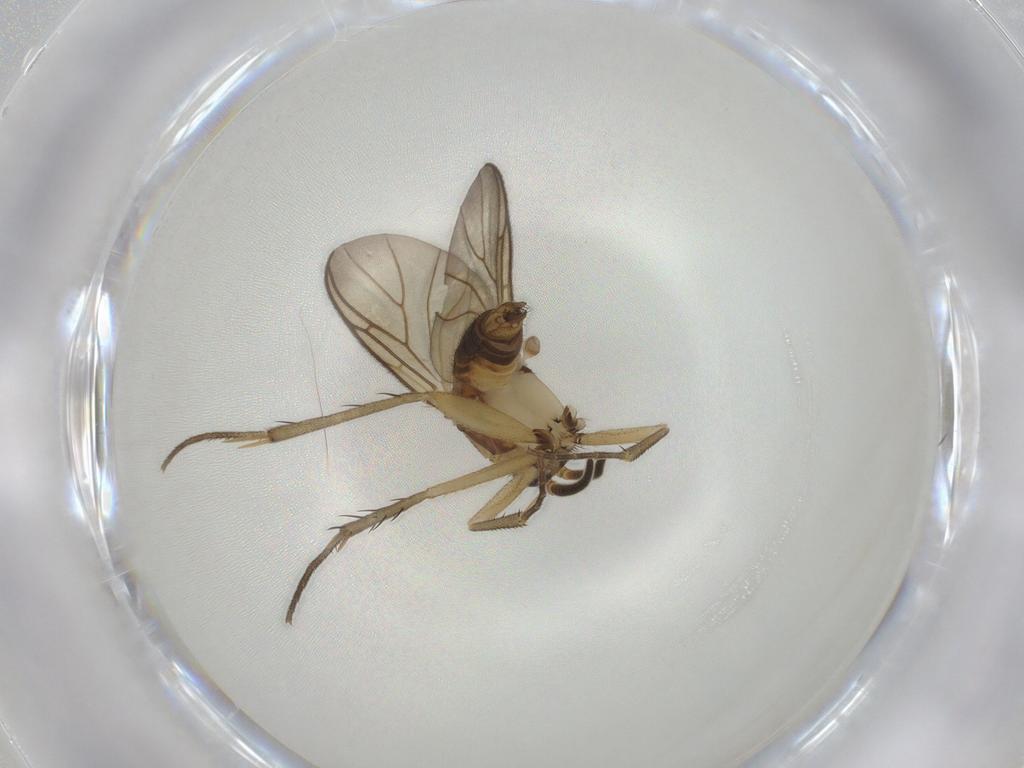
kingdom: Animalia
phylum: Arthropoda
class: Insecta
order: Diptera
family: Mycetophilidae
